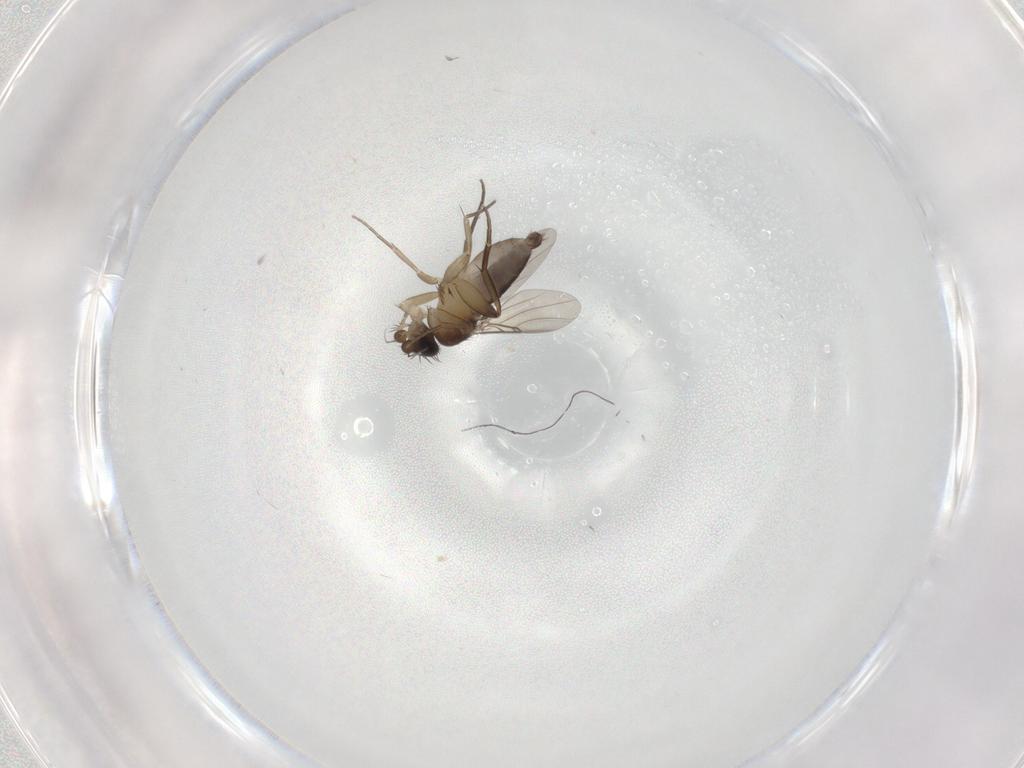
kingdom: Animalia
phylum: Arthropoda
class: Insecta
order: Diptera
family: Phoridae
